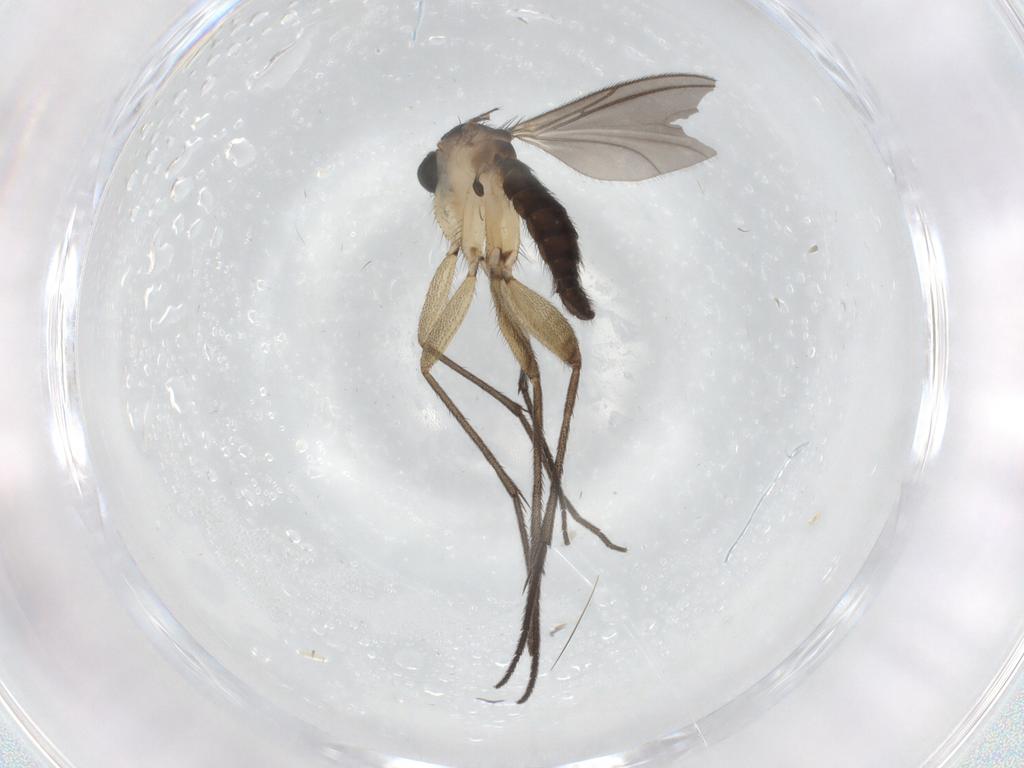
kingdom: Animalia
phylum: Arthropoda
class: Insecta
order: Diptera
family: Sciaridae
